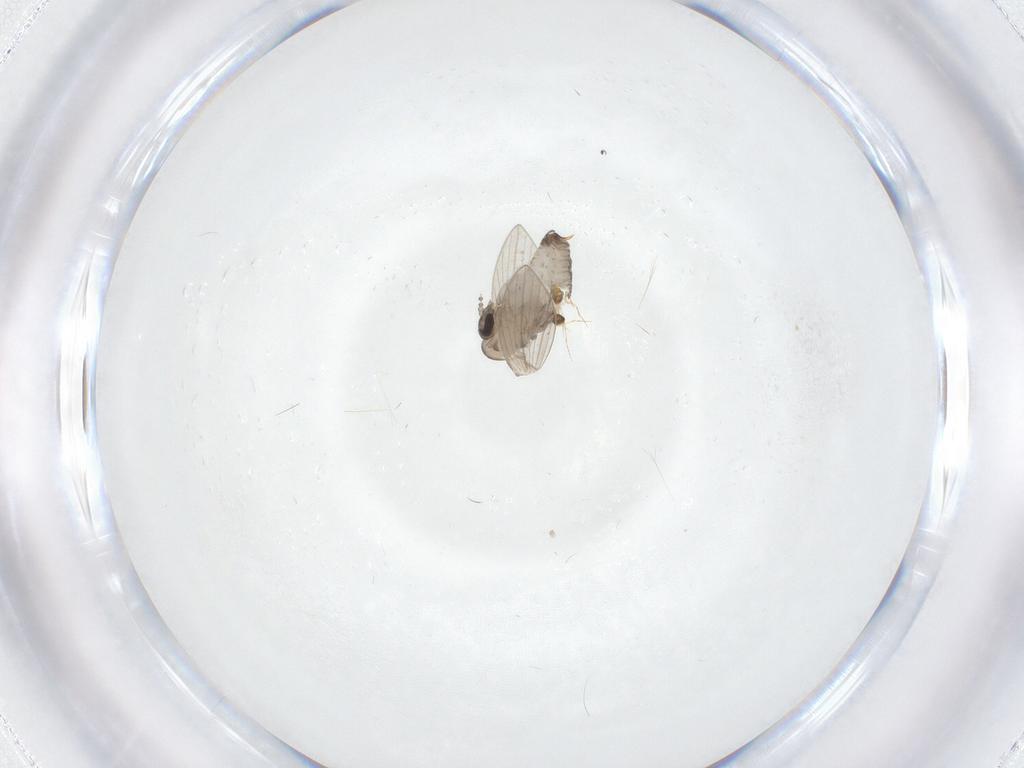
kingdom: Animalia
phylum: Arthropoda
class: Insecta
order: Diptera
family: Psychodidae
